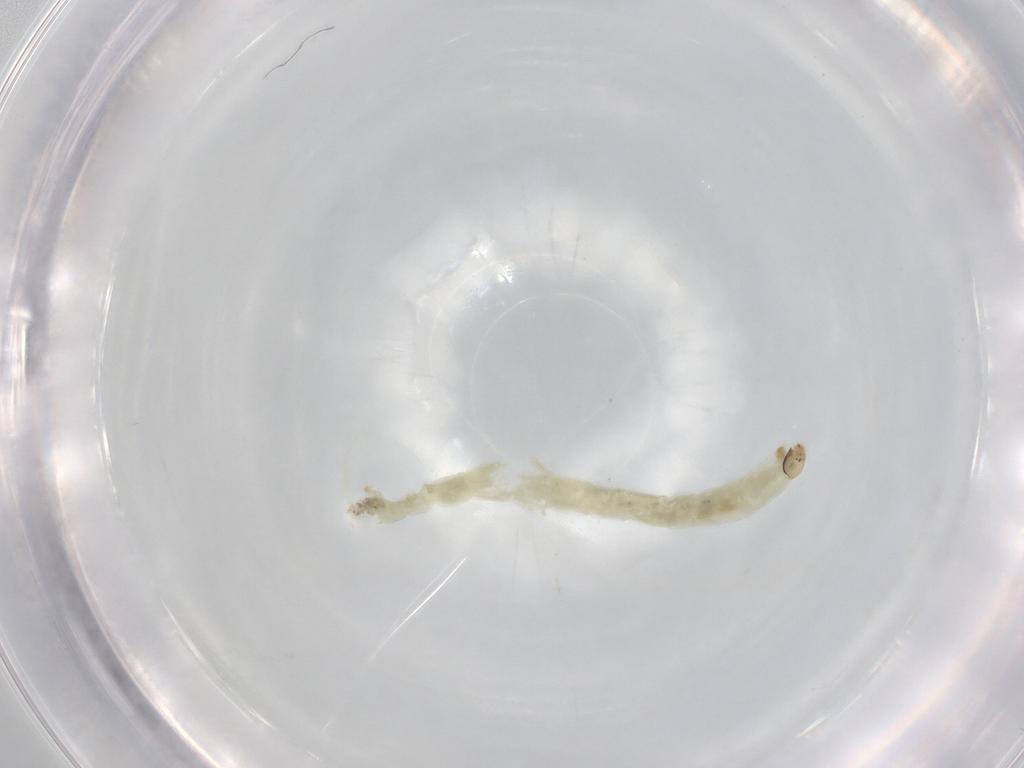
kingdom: Animalia
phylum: Arthropoda
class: Insecta
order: Diptera
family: Chironomidae
